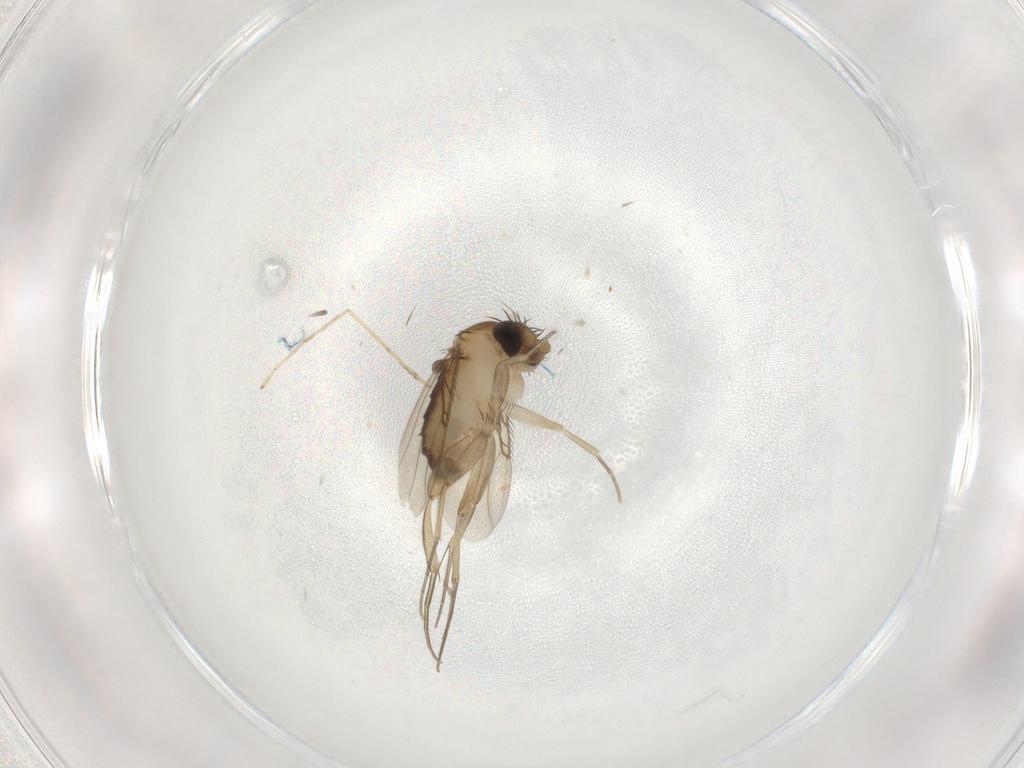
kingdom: Animalia
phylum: Arthropoda
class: Insecta
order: Diptera
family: Phoridae
